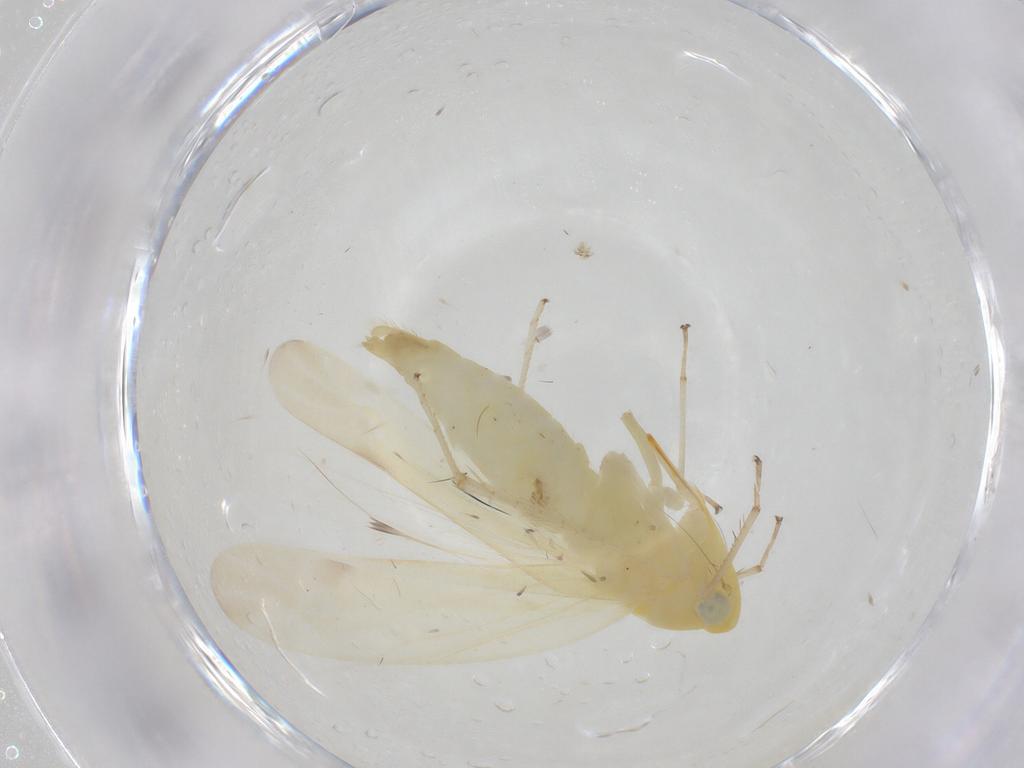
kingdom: Animalia
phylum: Arthropoda
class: Insecta
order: Hemiptera
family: Cicadellidae
